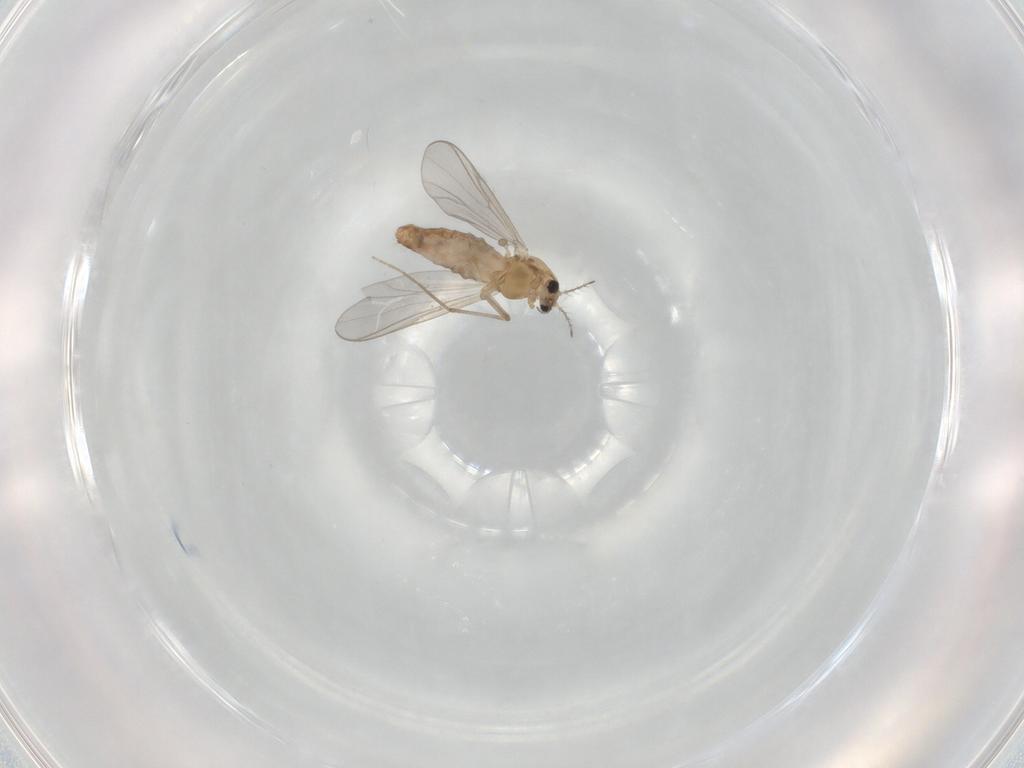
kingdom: Animalia
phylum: Arthropoda
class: Insecta
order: Diptera
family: Chironomidae
